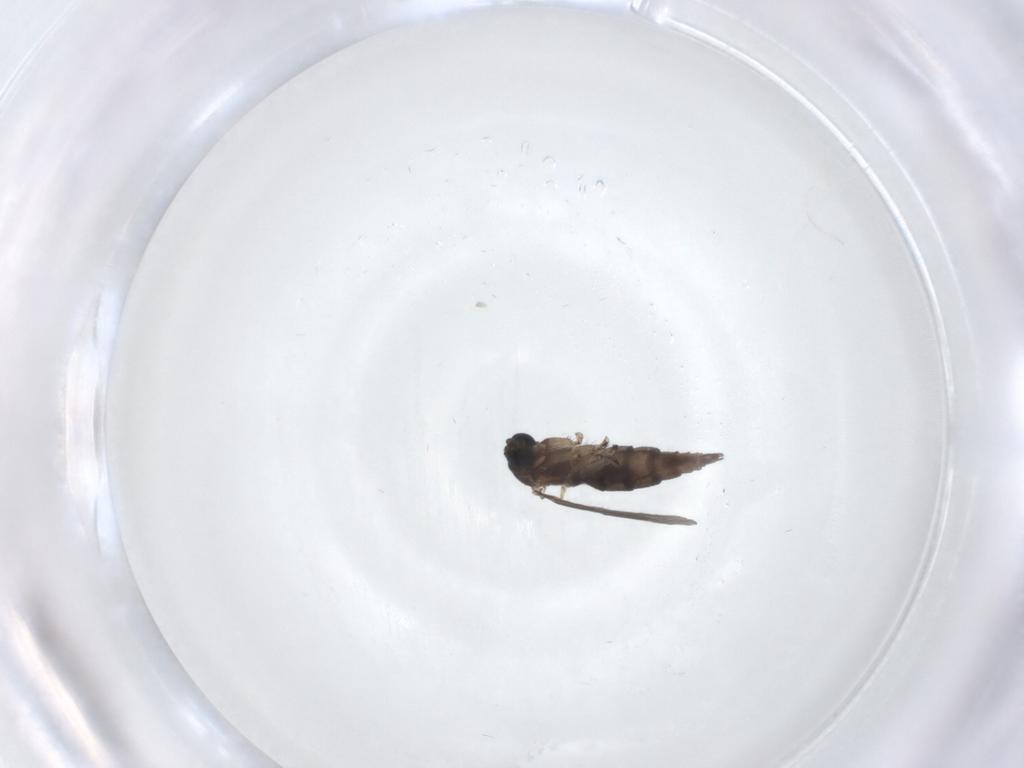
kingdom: Animalia
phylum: Arthropoda
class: Insecta
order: Diptera
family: Sciaridae
